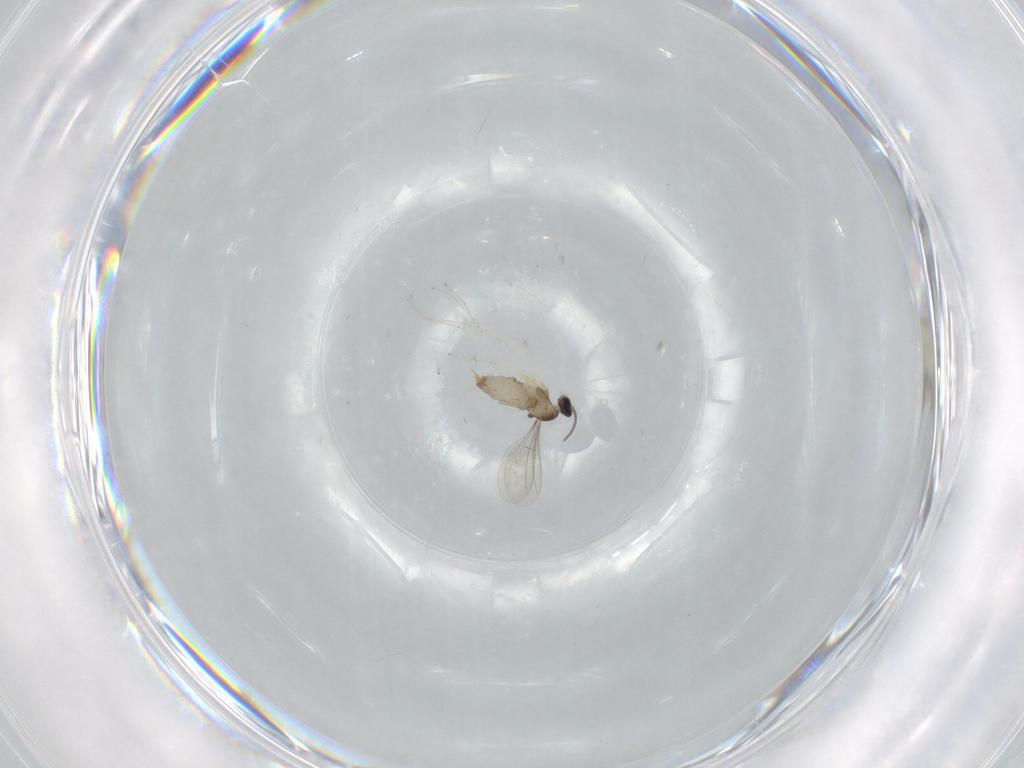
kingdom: Animalia
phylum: Arthropoda
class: Insecta
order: Diptera
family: Cecidomyiidae
